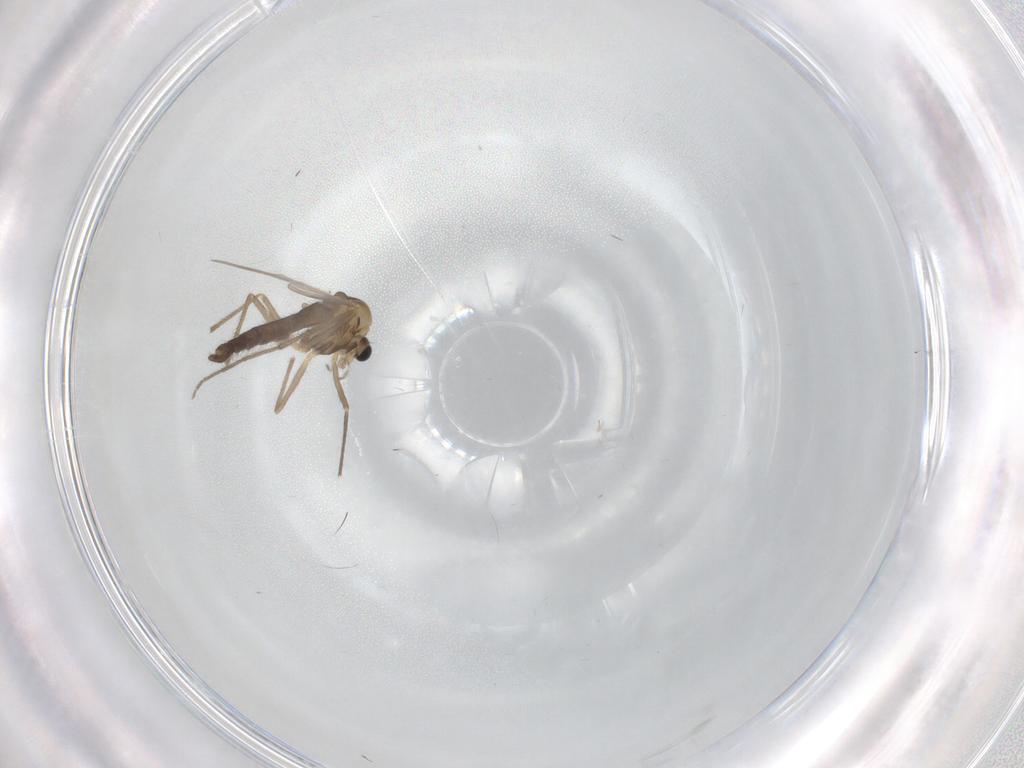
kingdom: Animalia
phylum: Arthropoda
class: Insecta
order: Diptera
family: Chironomidae
